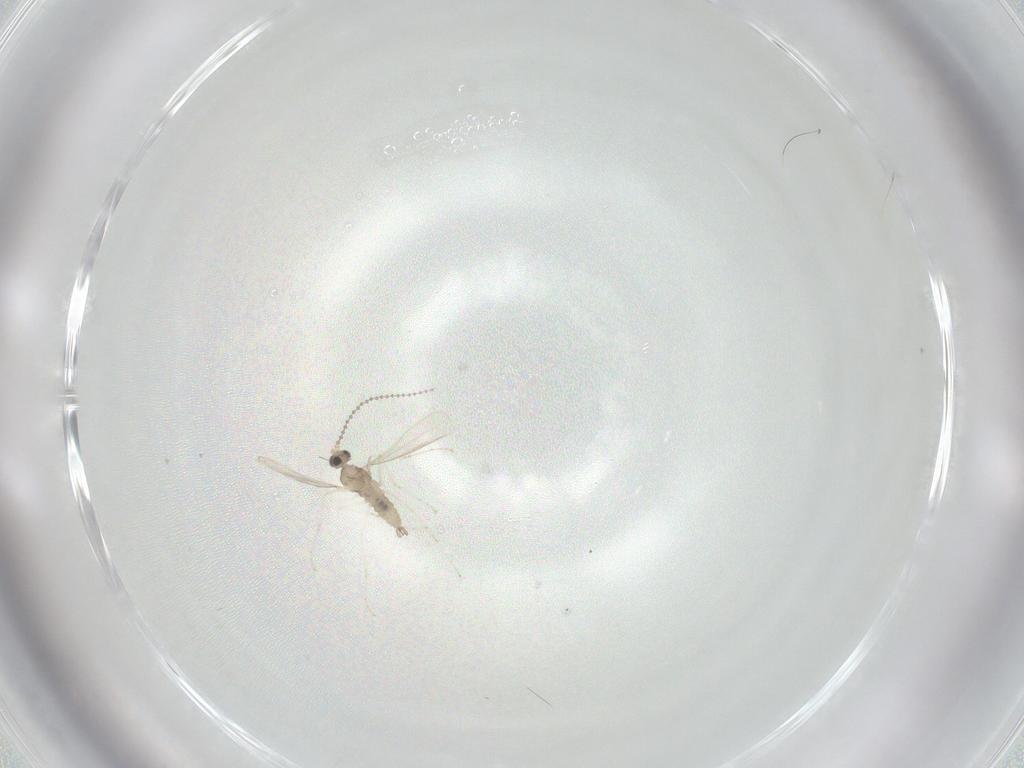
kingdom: Animalia
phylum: Arthropoda
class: Insecta
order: Diptera
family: Cecidomyiidae
